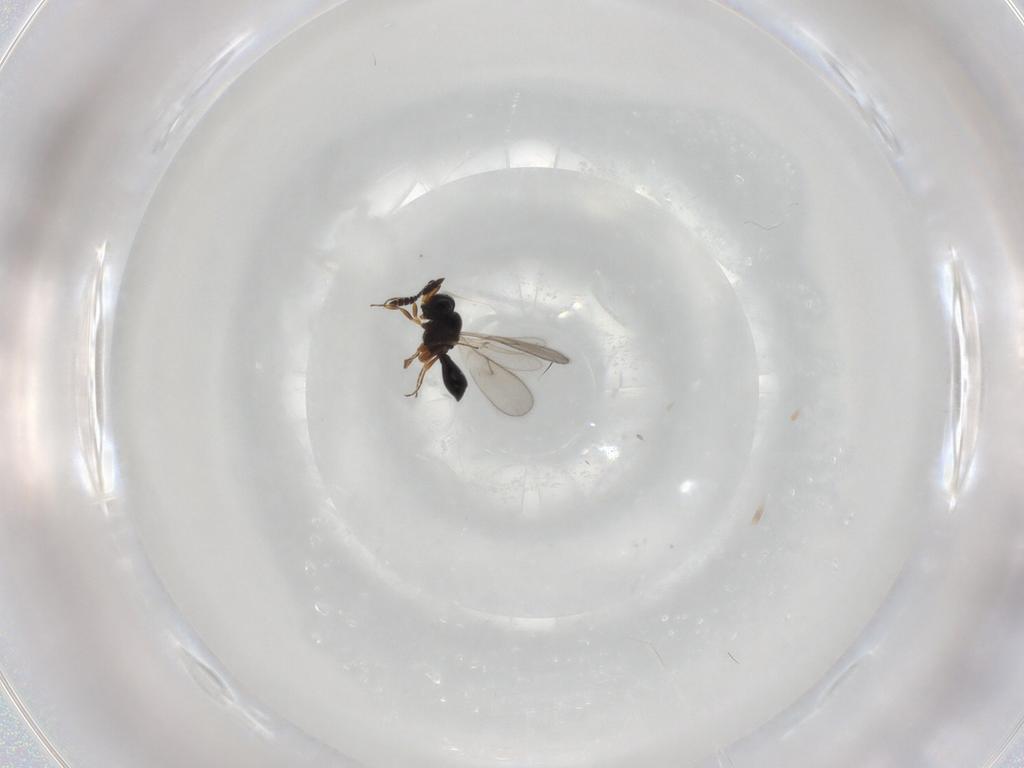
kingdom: Animalia
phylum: Arthropoda
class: Insecta
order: Hymenoptera
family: Scelionidae
